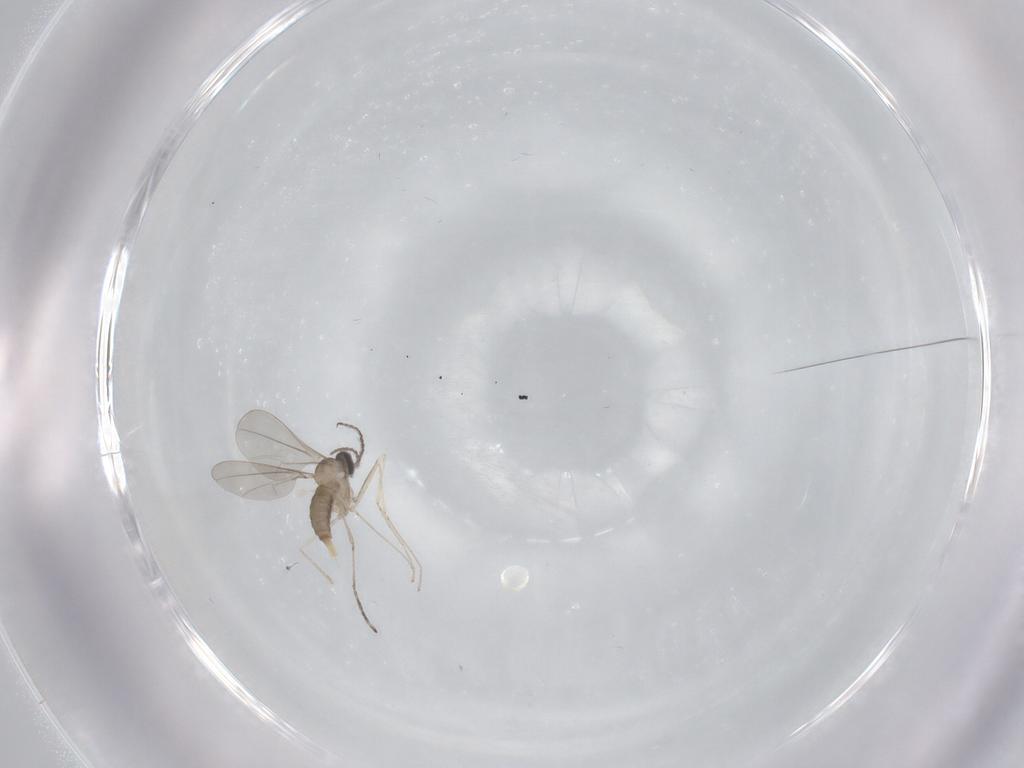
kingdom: Animalia
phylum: Arthropoda
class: Insecta
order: Diptera
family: Cecidomyiidae
